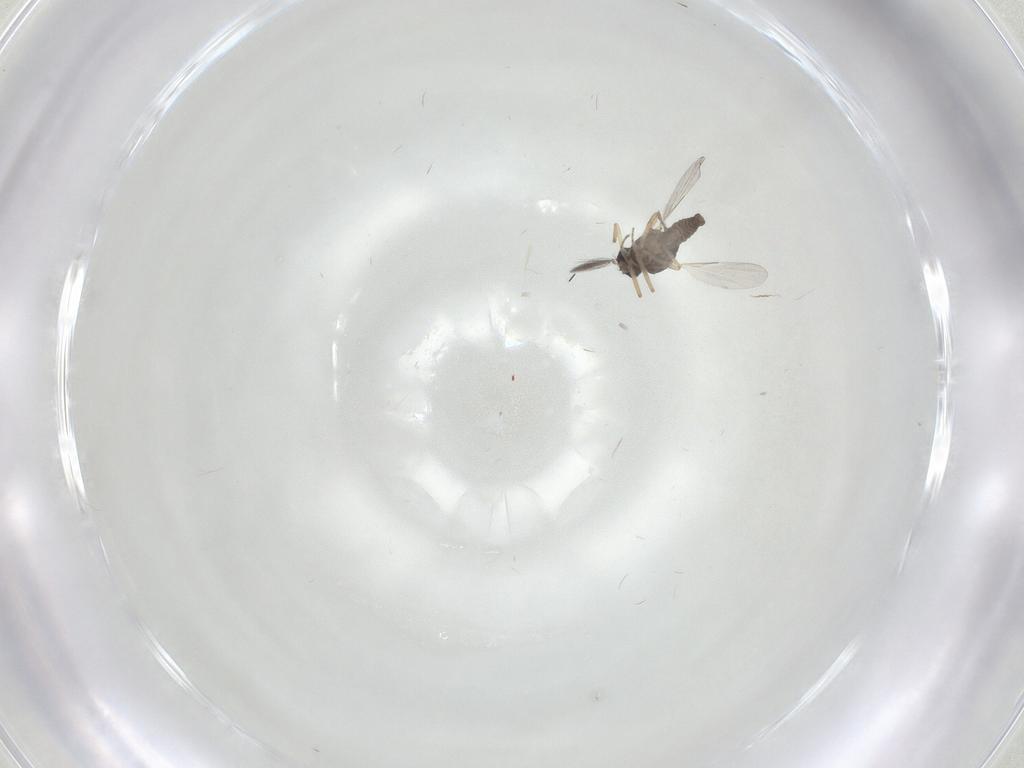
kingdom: Animalia
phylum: Arthropoda
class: Insecta
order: Diptera
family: Ceratopogonidae
